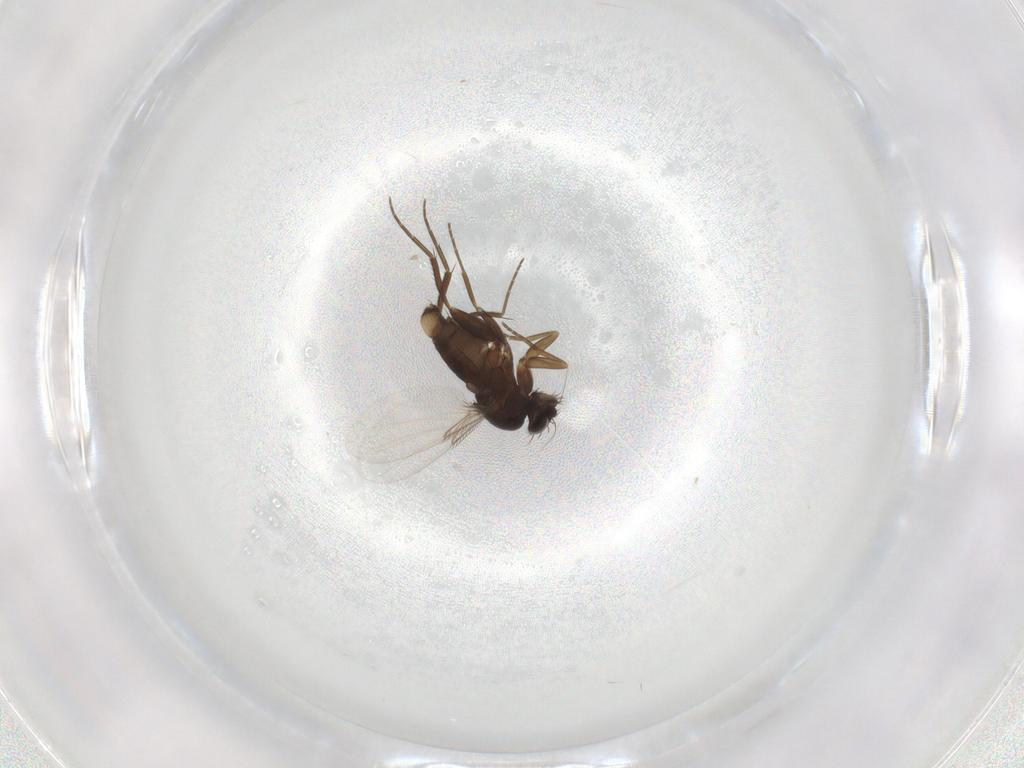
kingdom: Animalia
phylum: Arthropoda
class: Insecta
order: Diptera
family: Phoridae
